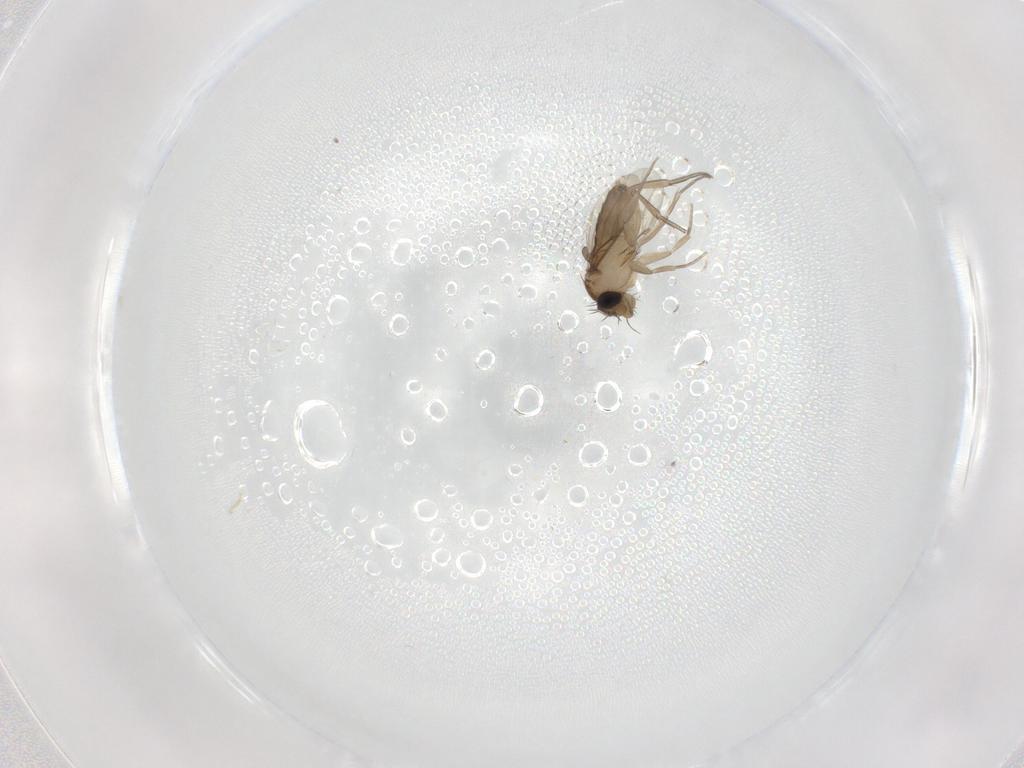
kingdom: Animalia
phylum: Arthropoda
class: Insecta
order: Diptera
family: Phoridae
